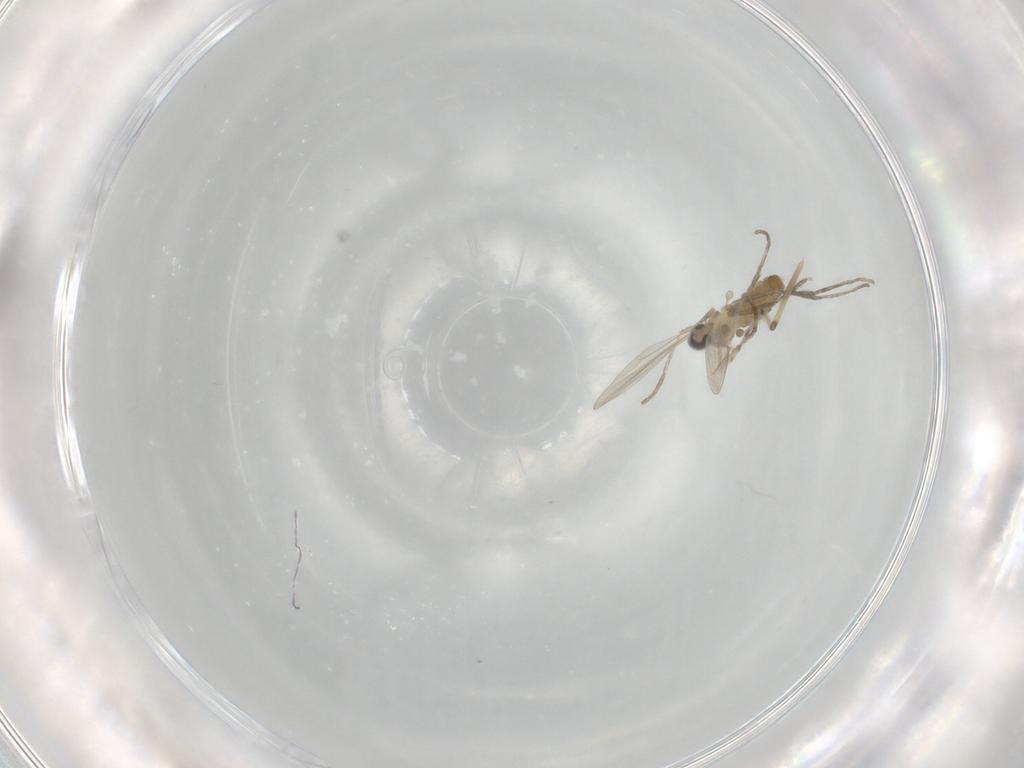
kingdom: Animalia
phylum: Arthropoda
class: Insecta
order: Diptera
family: Cecidomyiidae
